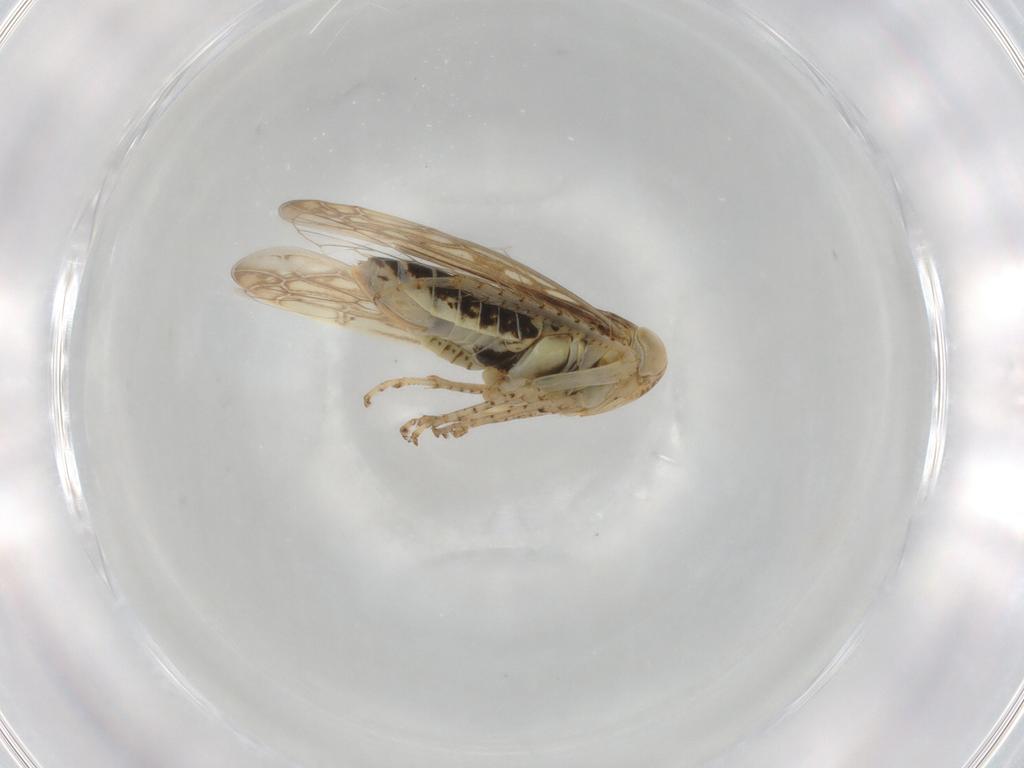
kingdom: Animalia
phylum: Arthropoda
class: Insecta
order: Hemiptera
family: Cicadellidae
